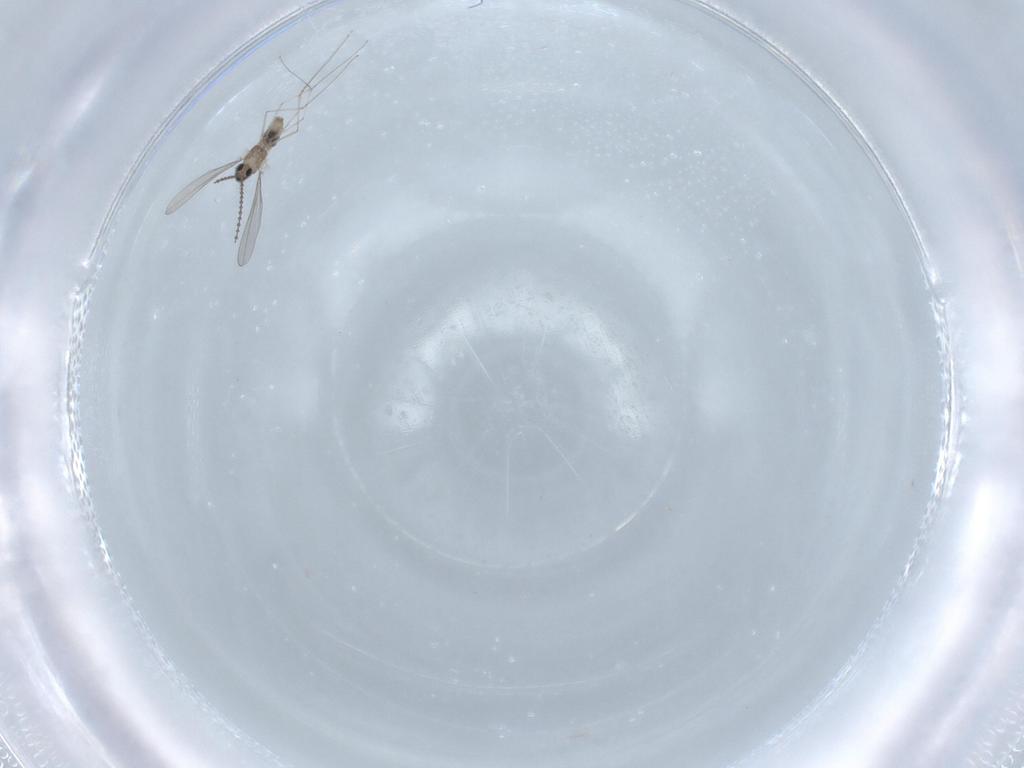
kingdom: Animalia
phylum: Arthropoda
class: Insecta
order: Diptera
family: Cecidomyiidae
